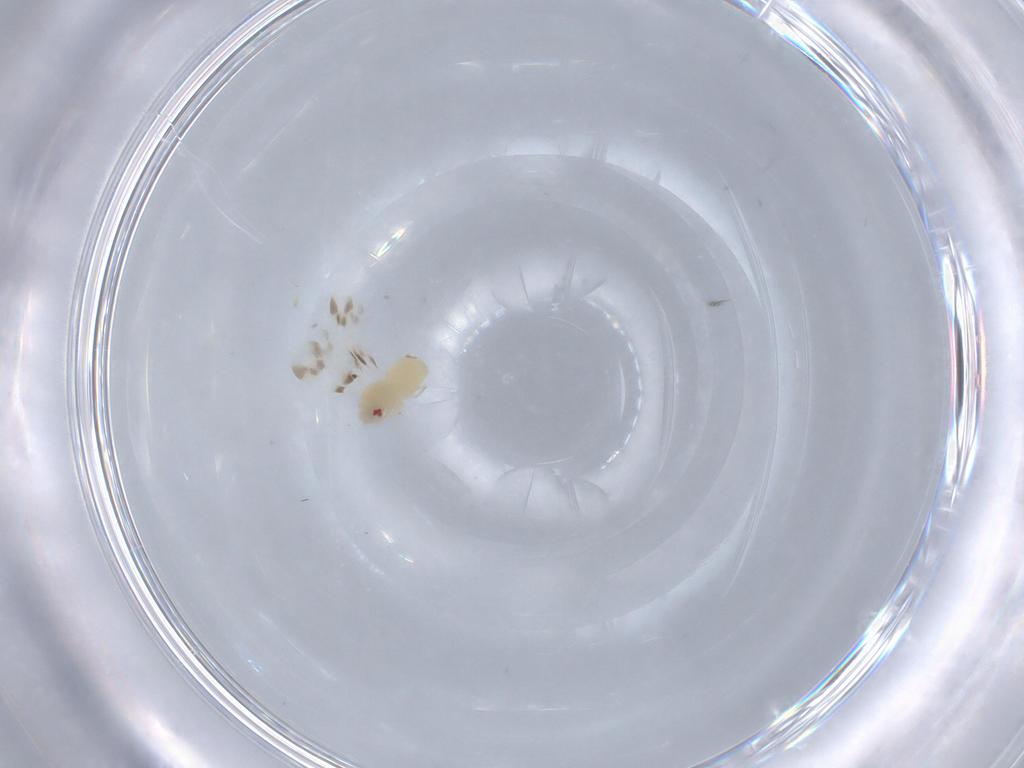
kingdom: Animalia
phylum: Arthropoda
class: Insecta
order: Hemiptera
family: Aleyrodidae
